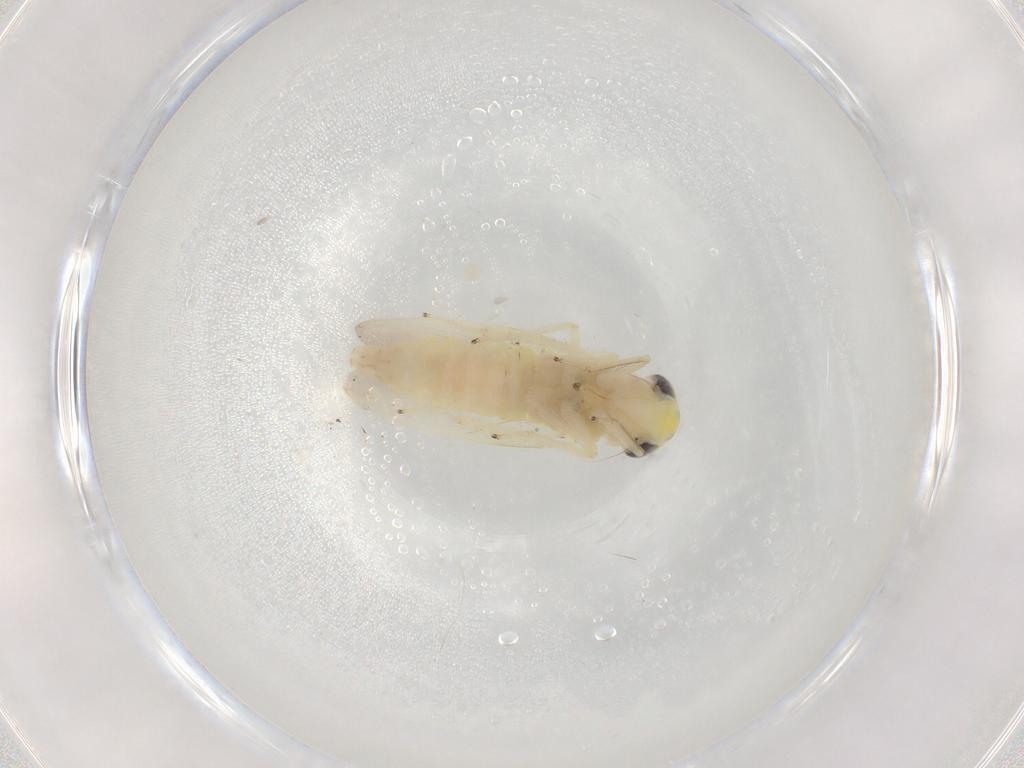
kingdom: Animalia
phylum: Arthropoda
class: Insecta
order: Hemiptera
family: Cicadellidae
